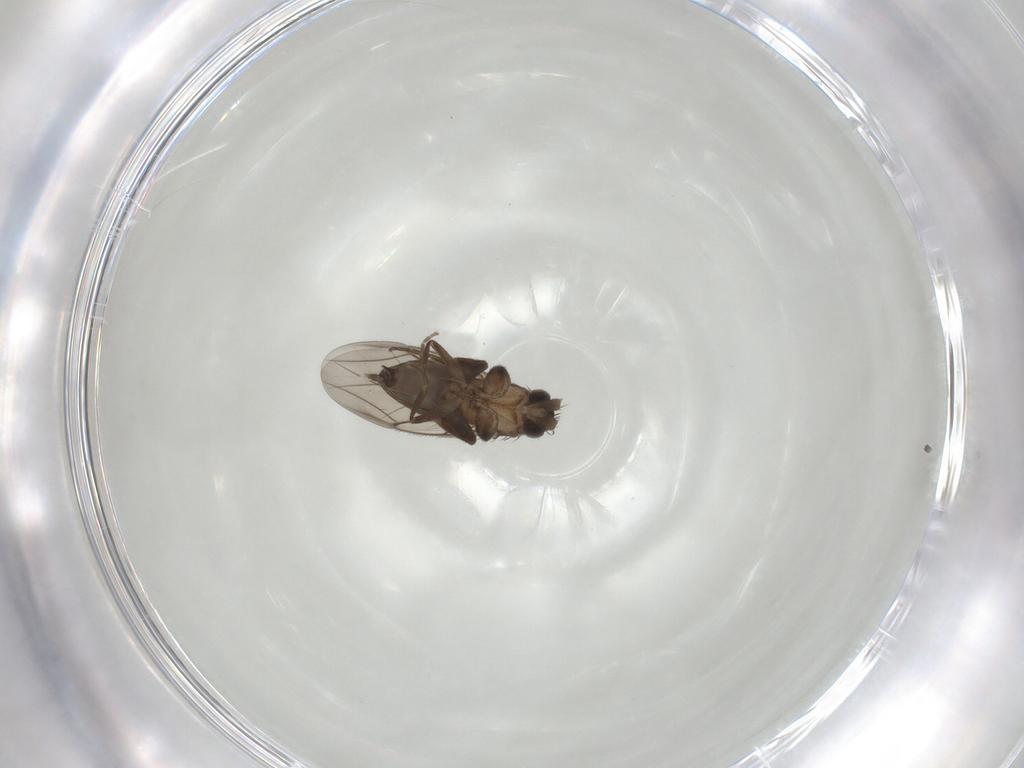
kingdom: Animalia
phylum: Arthropoda
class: Insecta
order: Diptera
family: Phoridae
